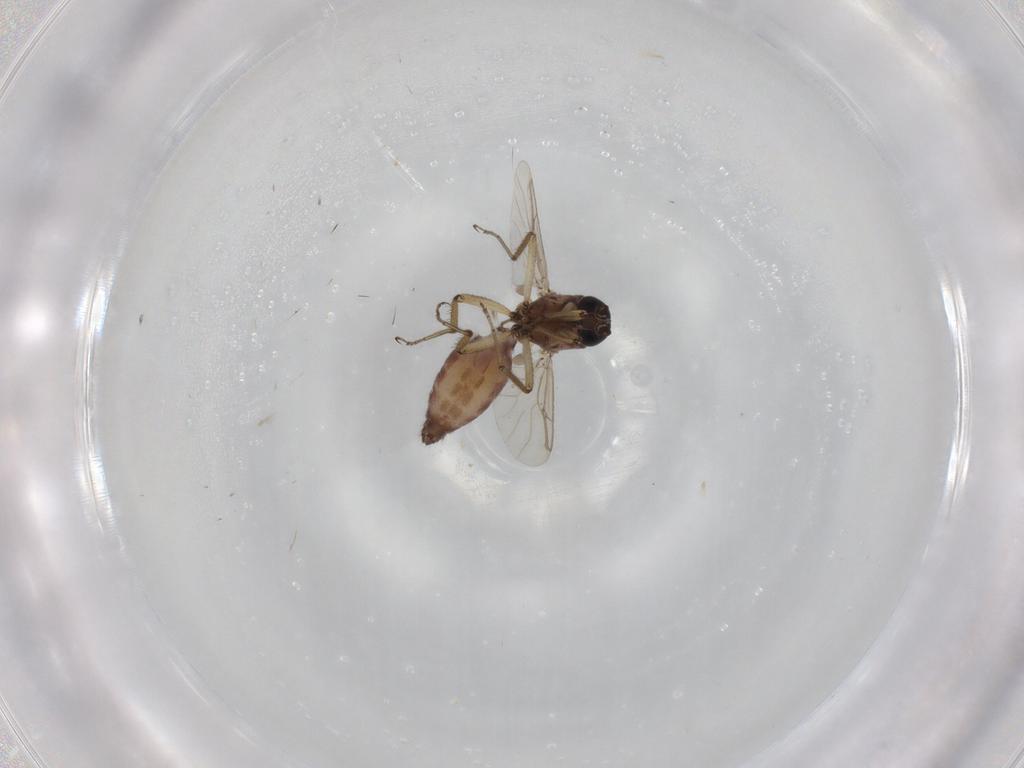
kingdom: Animalia
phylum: Arthropoda
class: Insecta
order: Diptera
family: Ceratopogonidae
